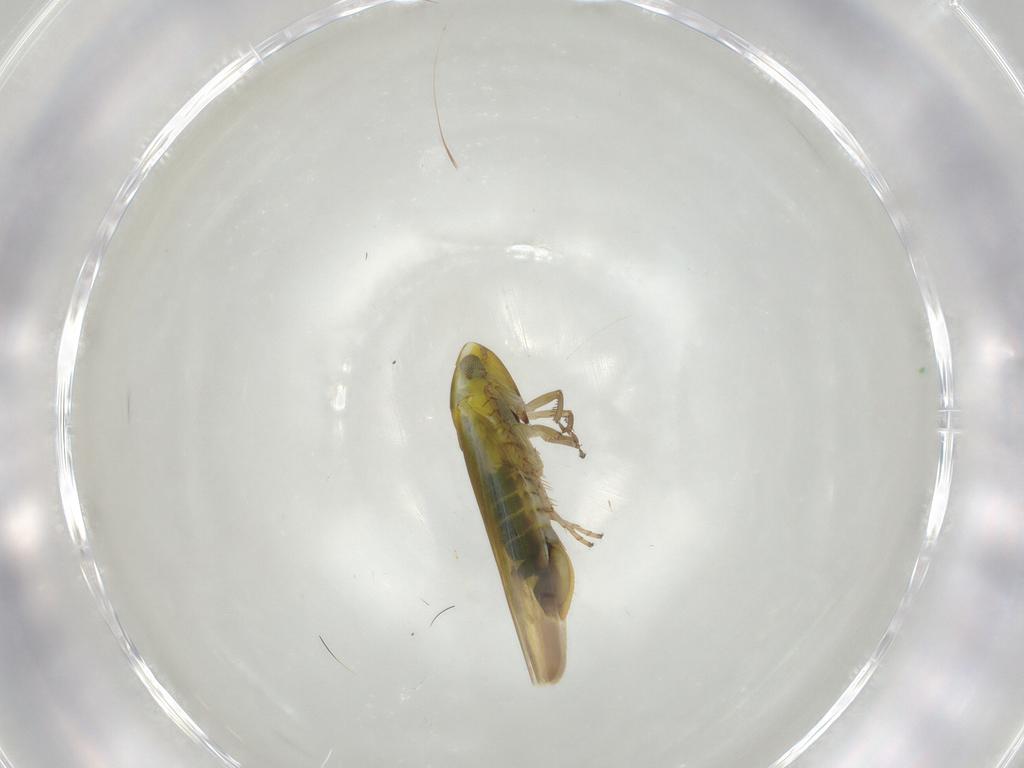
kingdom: Animalia
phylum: Arthropoda
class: Insecta
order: Hemiptera
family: Cicadellidae
